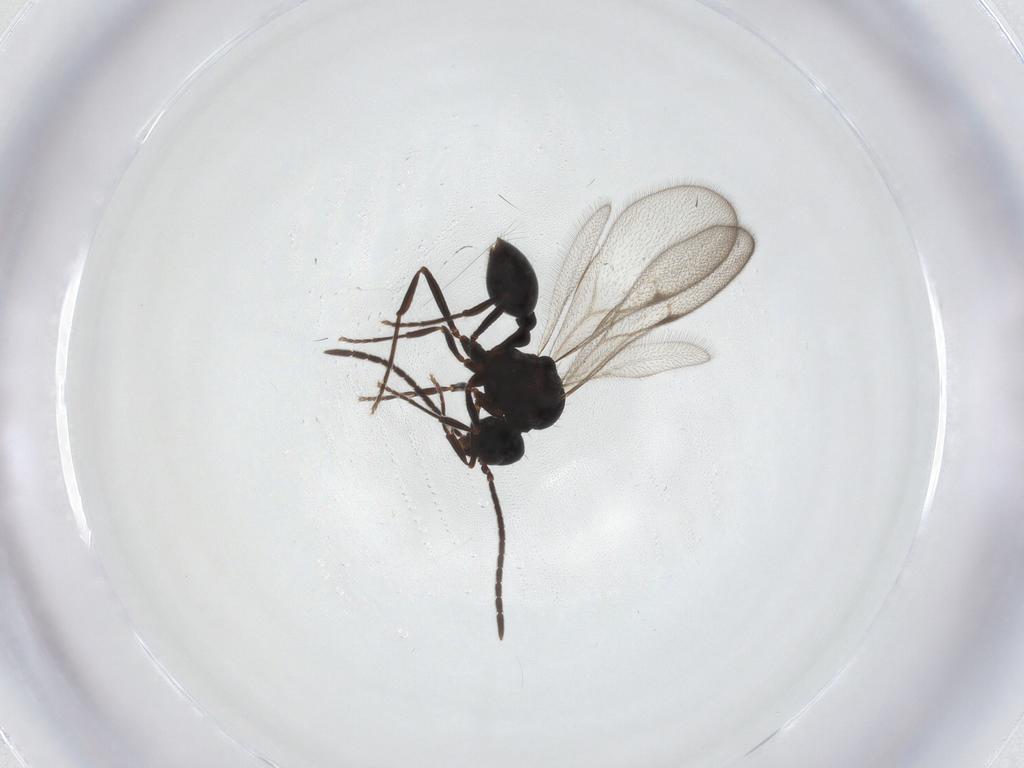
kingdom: Animalia
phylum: Arthropoda
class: Insecta
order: Hymenoptera
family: Formicidae
